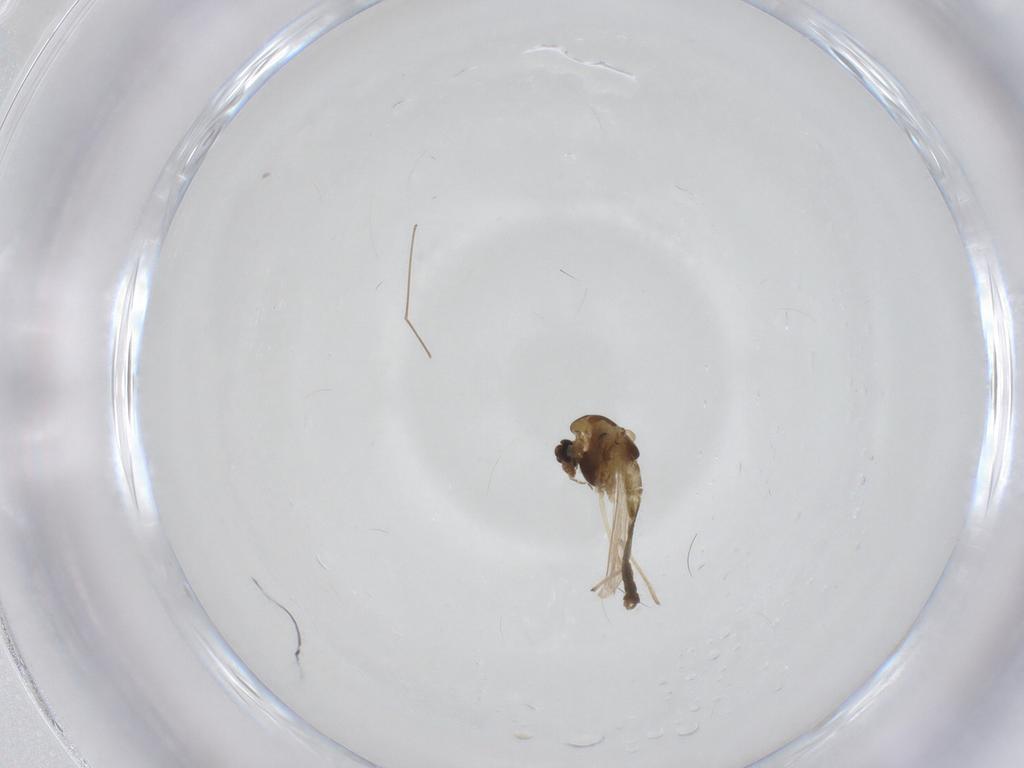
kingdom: Animalia
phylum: Arthropoda
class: Insecta
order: Diptera
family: Chironomidae
